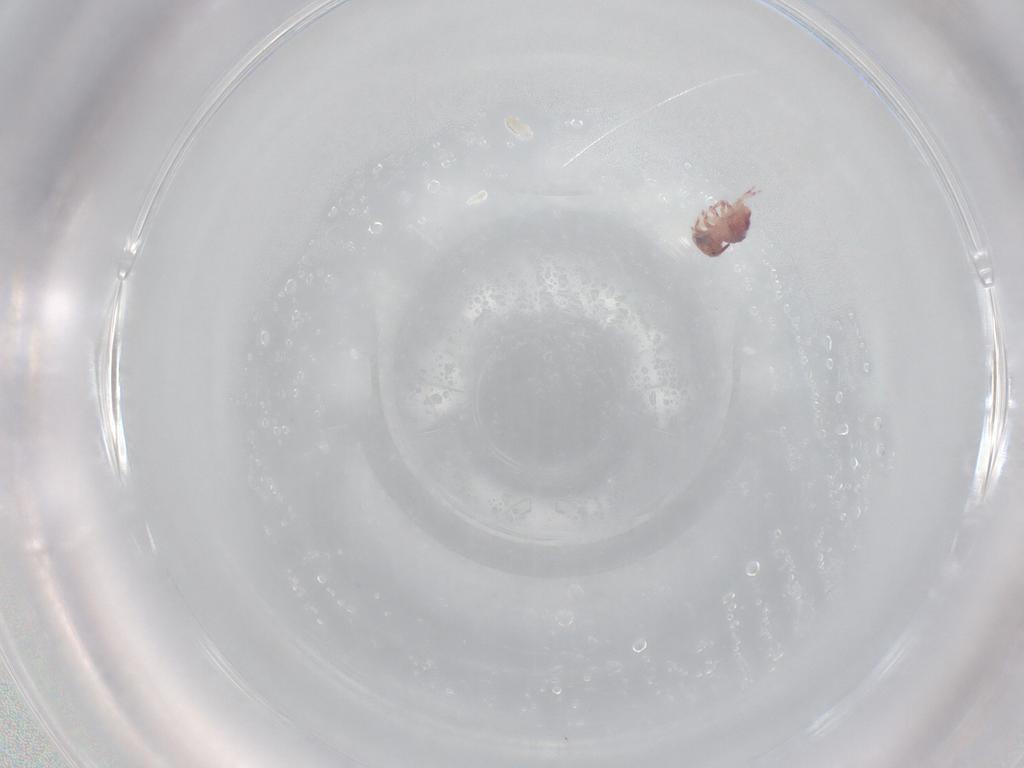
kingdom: Animalia
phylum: Arthropoda
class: Collembola
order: Symphypleona
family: Sminthurididae
